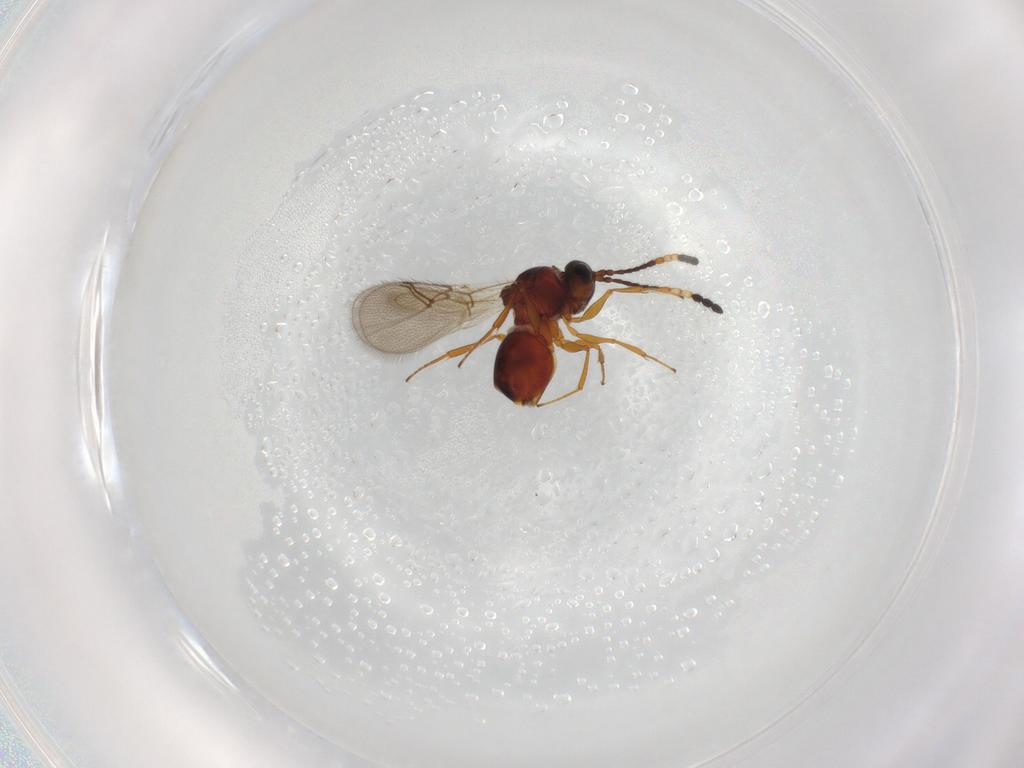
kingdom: Animalia
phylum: Arthropoda
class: Insecta
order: Hymenoptera
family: Figitidae
